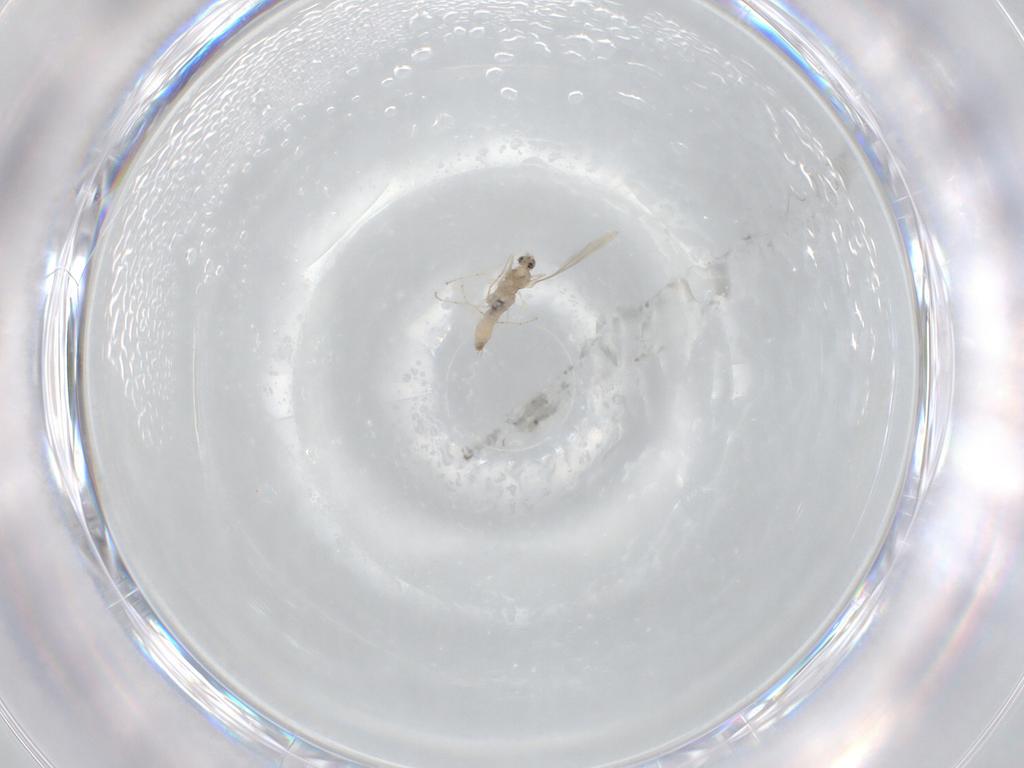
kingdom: Animalia
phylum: Arthropoda
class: Insecta
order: Diptera
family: Cecidomyiidae
